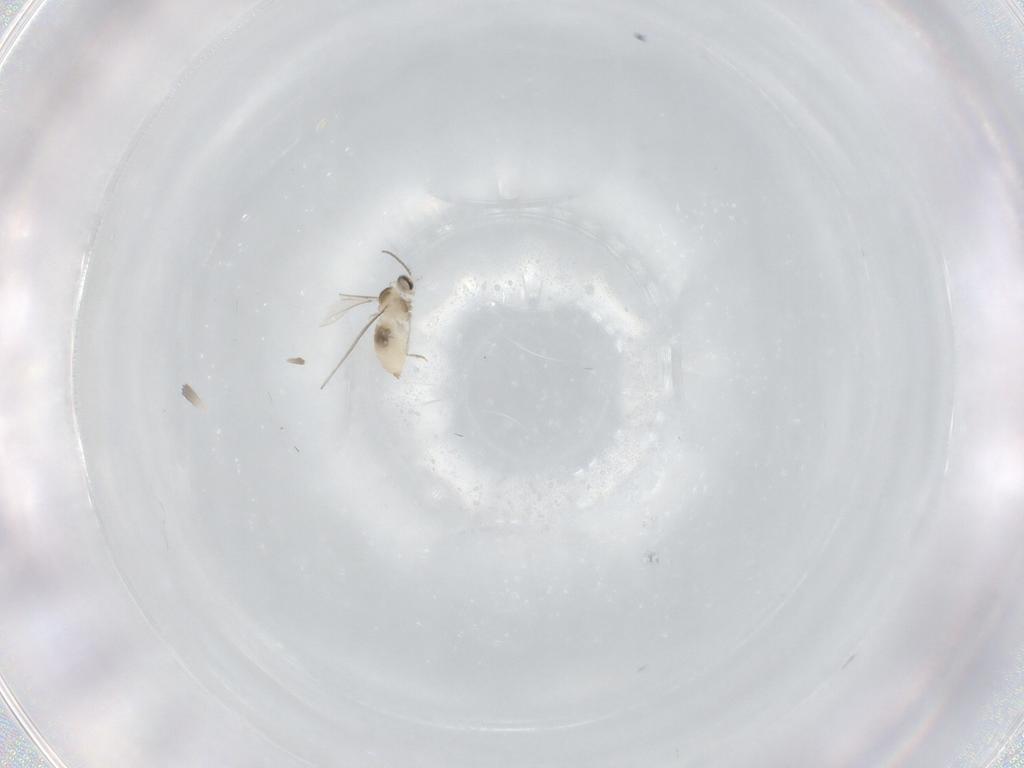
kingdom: Animalia
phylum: Arthropoda
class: Insecta
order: Diptera
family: Cecidomyiidae
